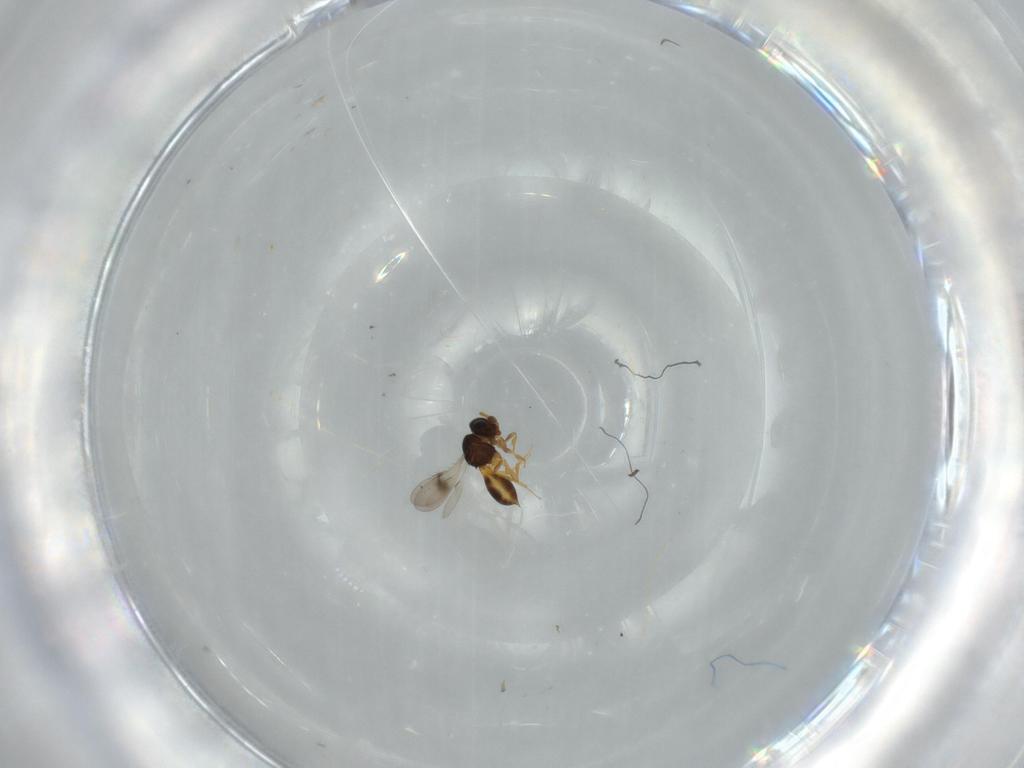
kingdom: Animalia
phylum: Arthropoda
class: Insecta
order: Hymenoptera
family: Scelionidae
